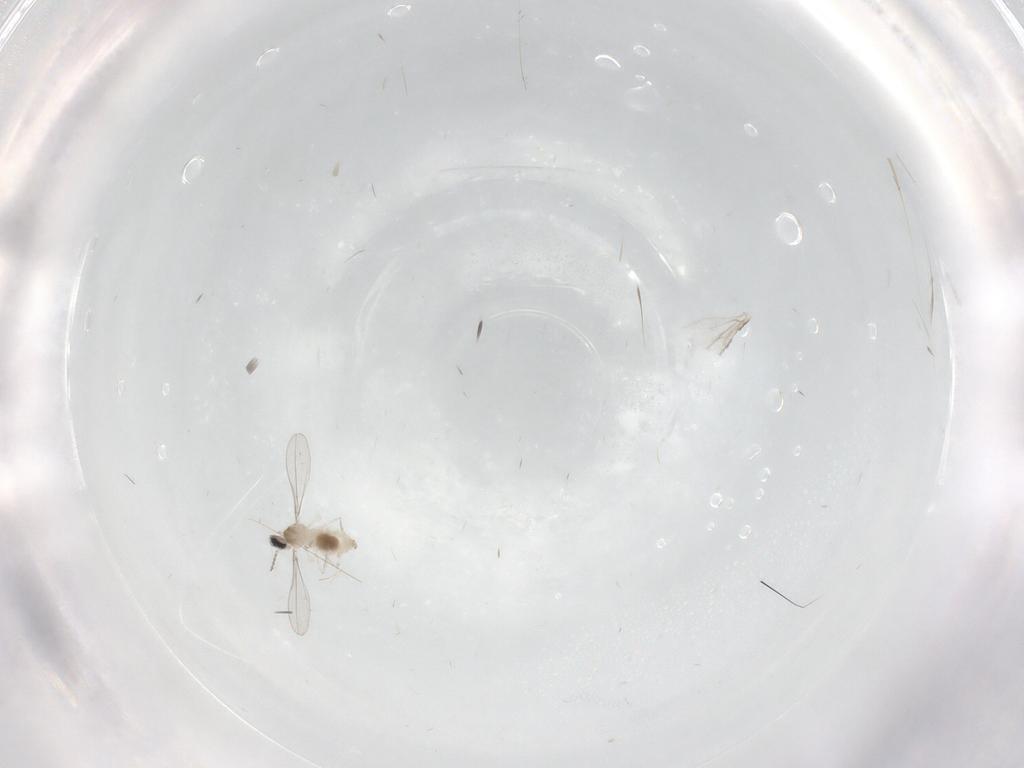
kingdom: Animalia
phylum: Arthropoda
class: Insecta
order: Diptera
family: Cecidomyiidae
